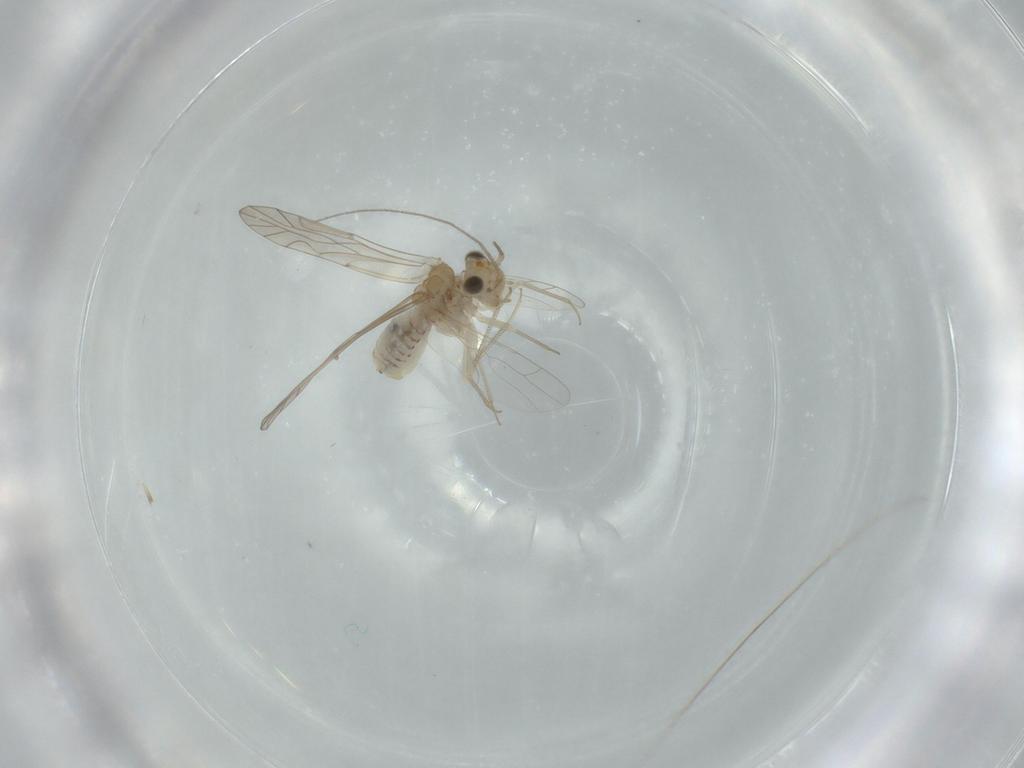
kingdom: Animalia
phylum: Arthropoda
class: Insecta
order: Psocodea
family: Lachesillidae
